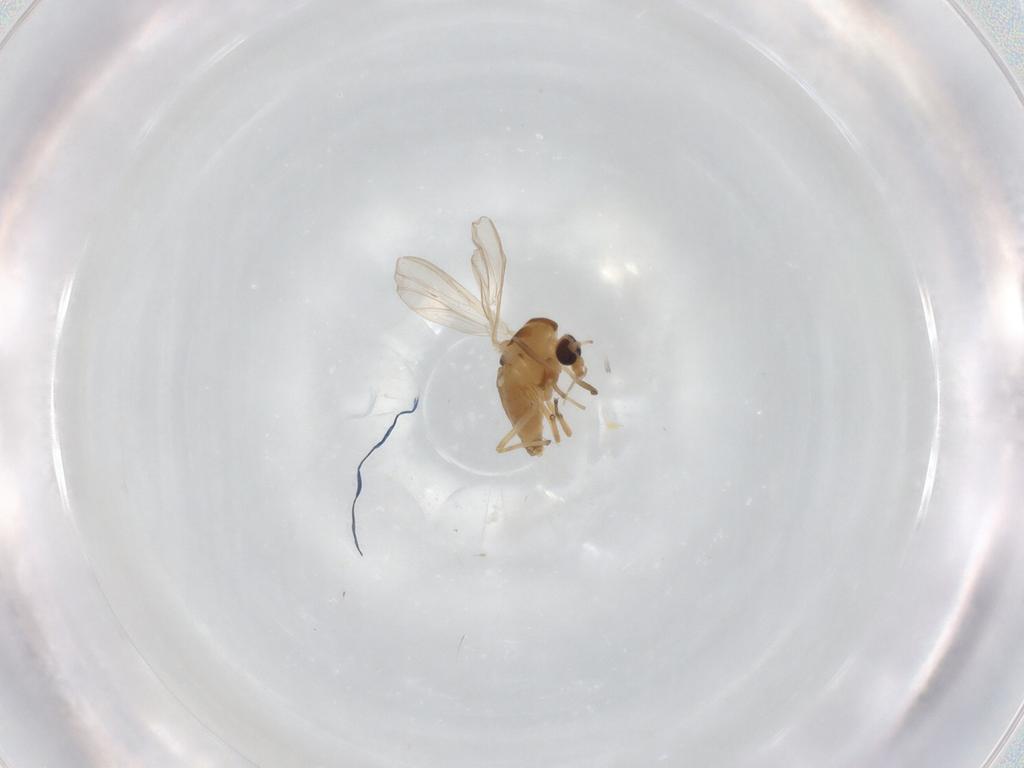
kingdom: Animalia
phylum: Arthropoda
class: Insecta
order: Diptera
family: Chironomidae
